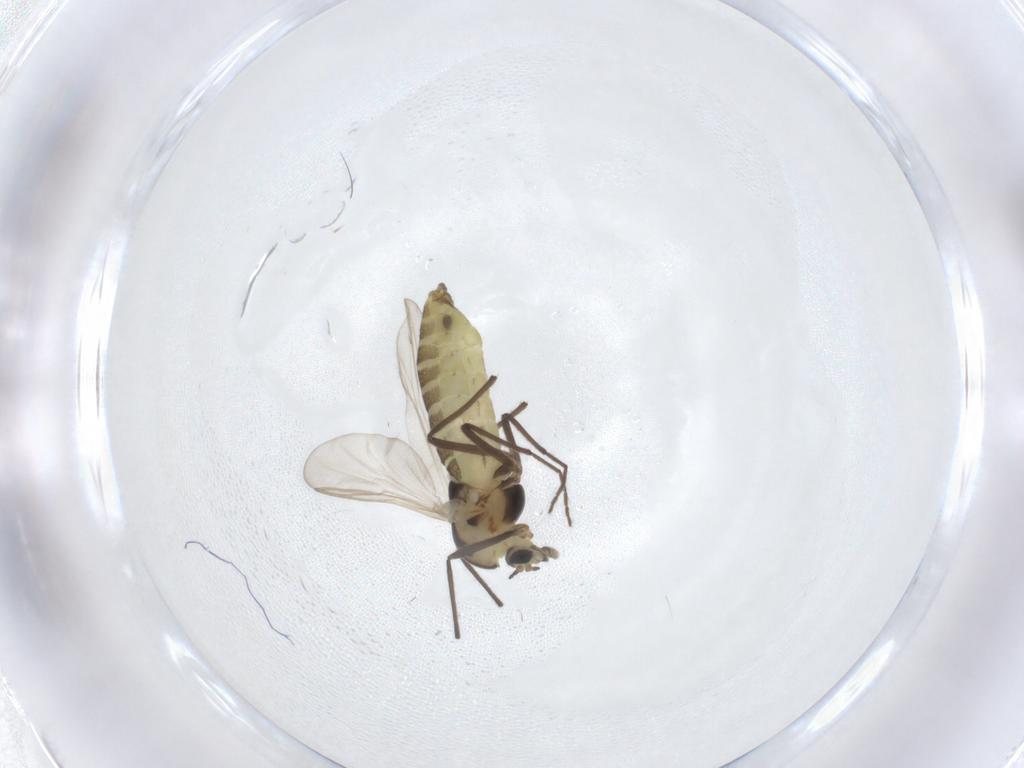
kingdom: Animalia
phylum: Arthropoda
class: Insecta
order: Diptera
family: Chironomidae
